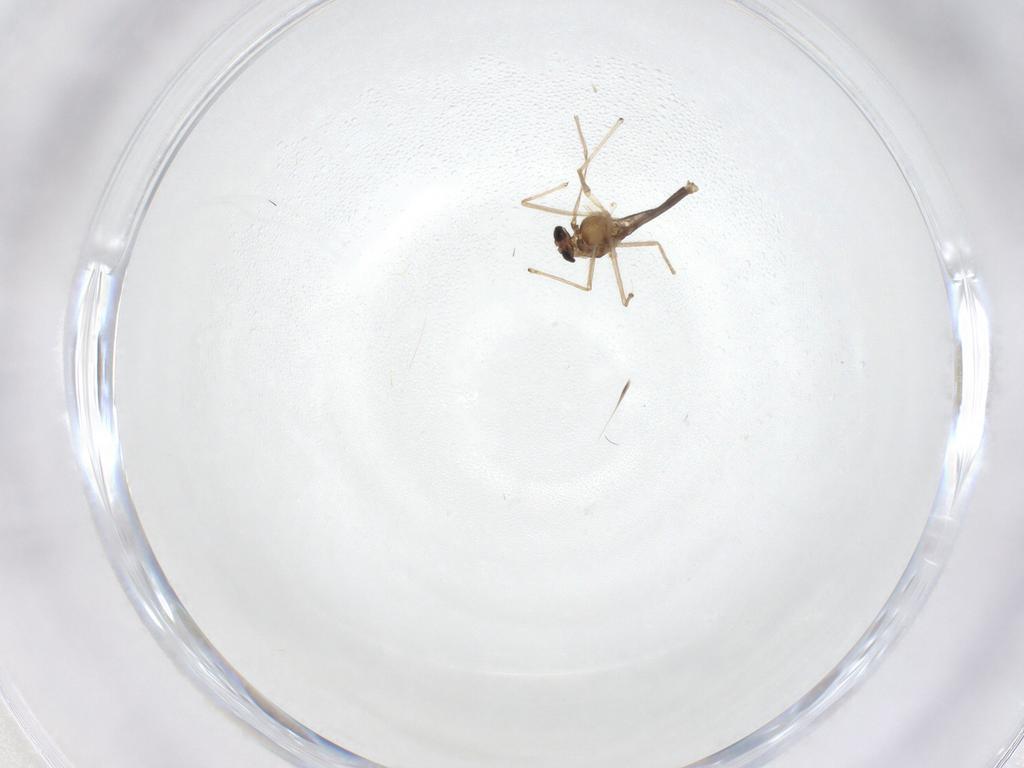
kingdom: Animalia
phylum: Arthropoda
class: Insecta
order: Diptera
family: Chironomidae
